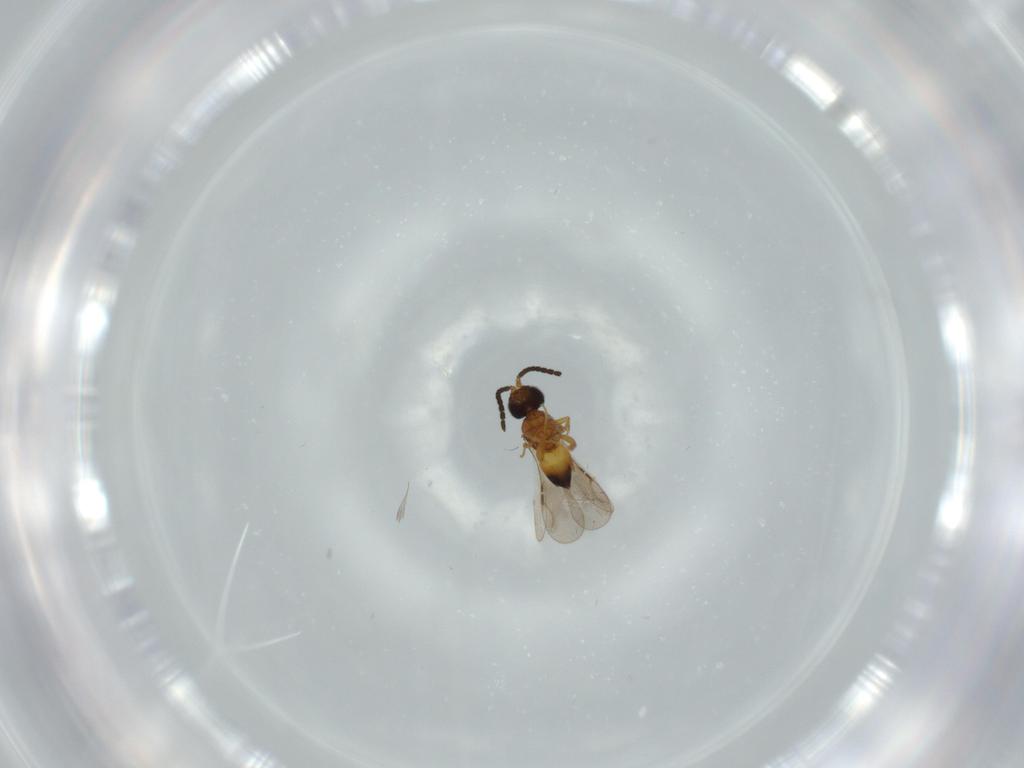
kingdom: Animalia
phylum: Arthropoda
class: Insecta
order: Hymenoptera
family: Ceraphronidae
